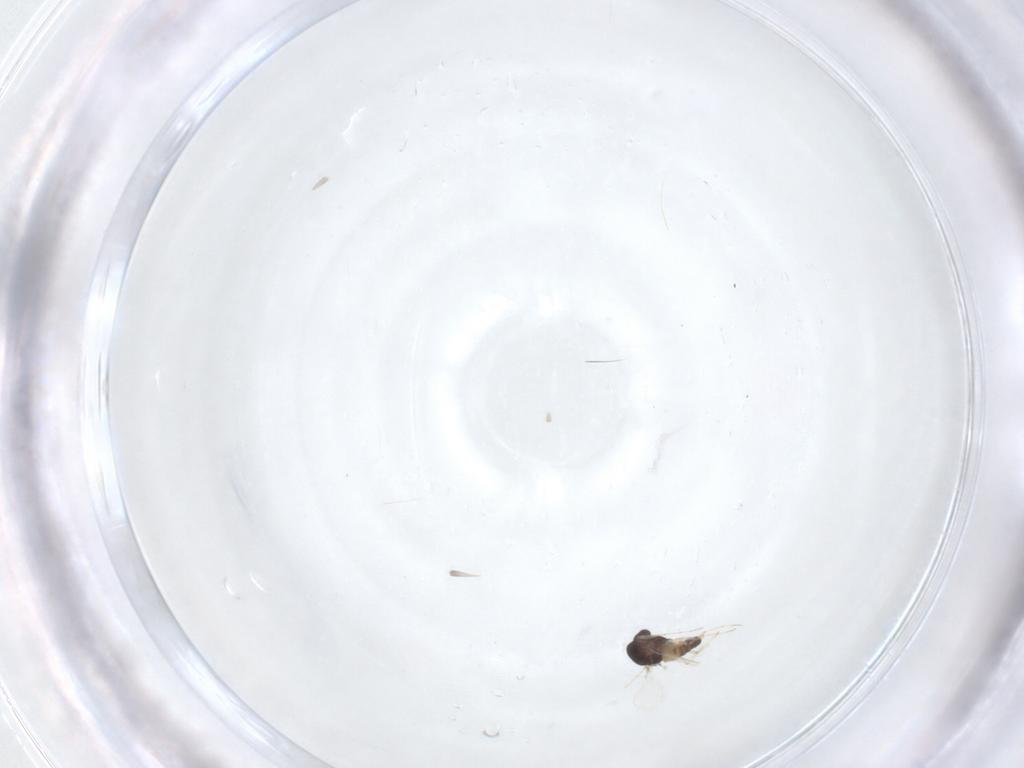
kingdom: Animalia
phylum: Arthropoda
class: Insecta
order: Diptera
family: Chironomidae
